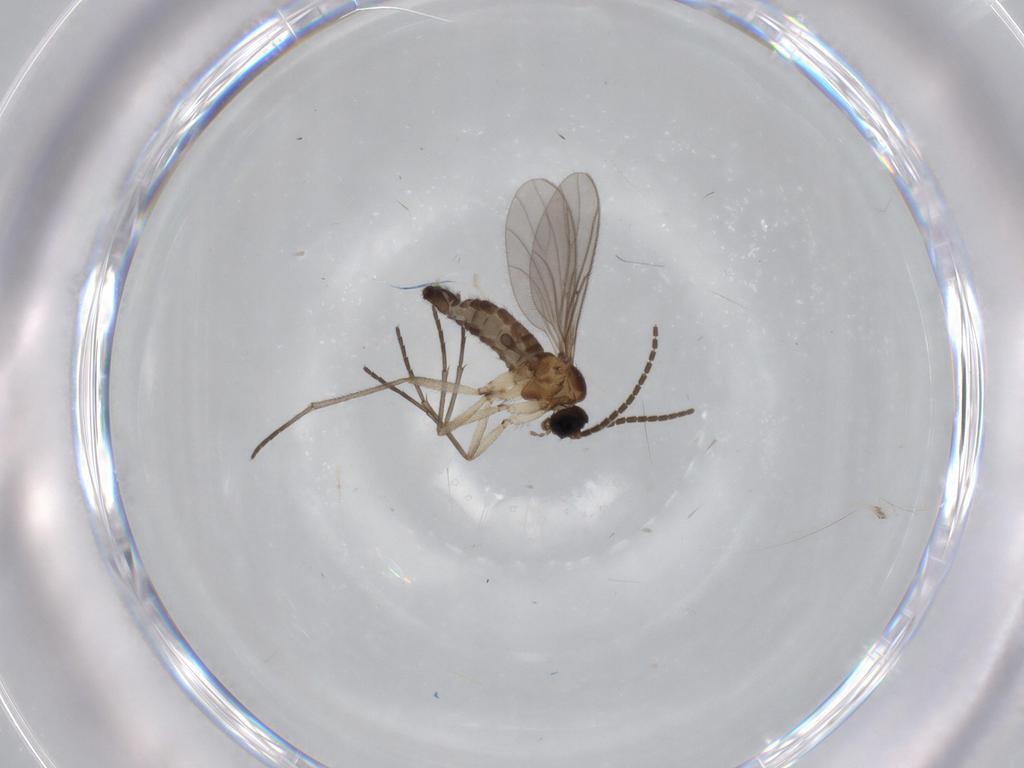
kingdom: Animalia
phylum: Arthropoda
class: Insecta
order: Diptera
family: Sciaridae
